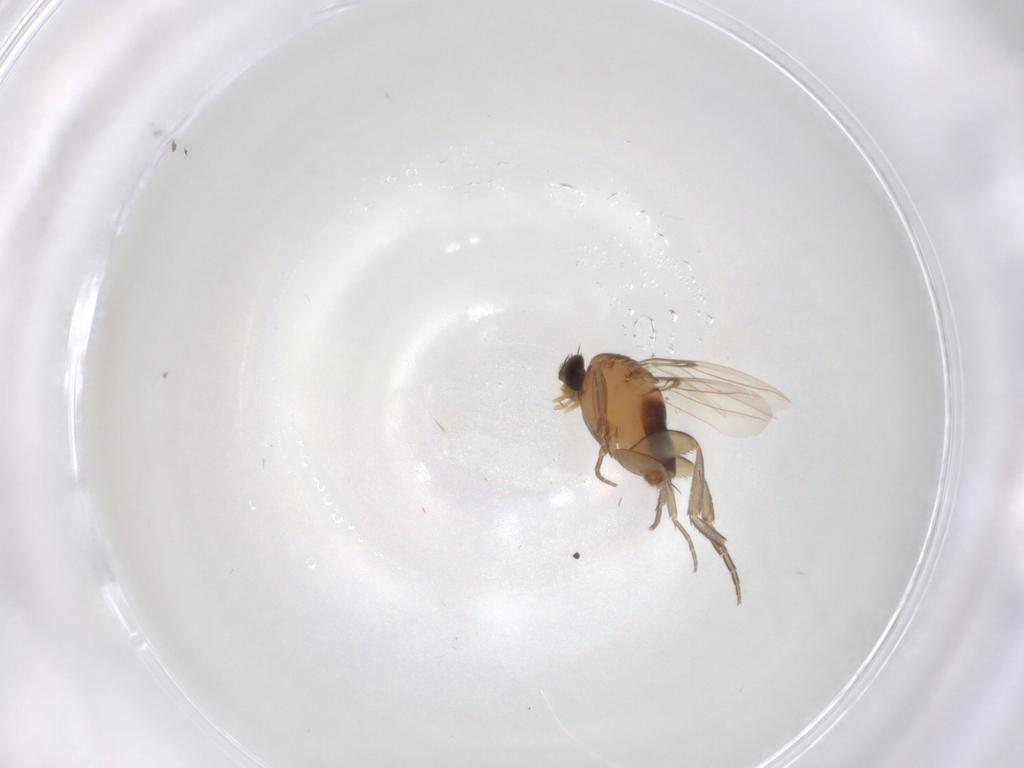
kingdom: Animalia
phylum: Arthropoda
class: Insecta
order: Diptera
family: Phoridae
